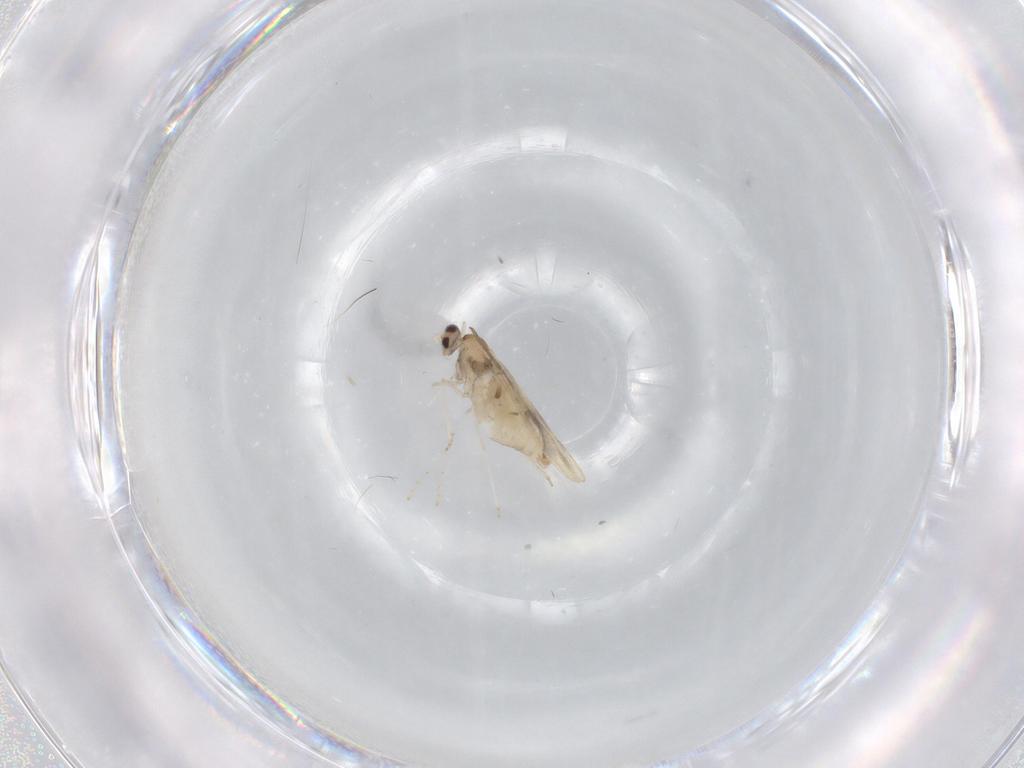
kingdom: Animalia
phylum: Arthropoda
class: Insecta
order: Diptera
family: Cecidomyiidae
